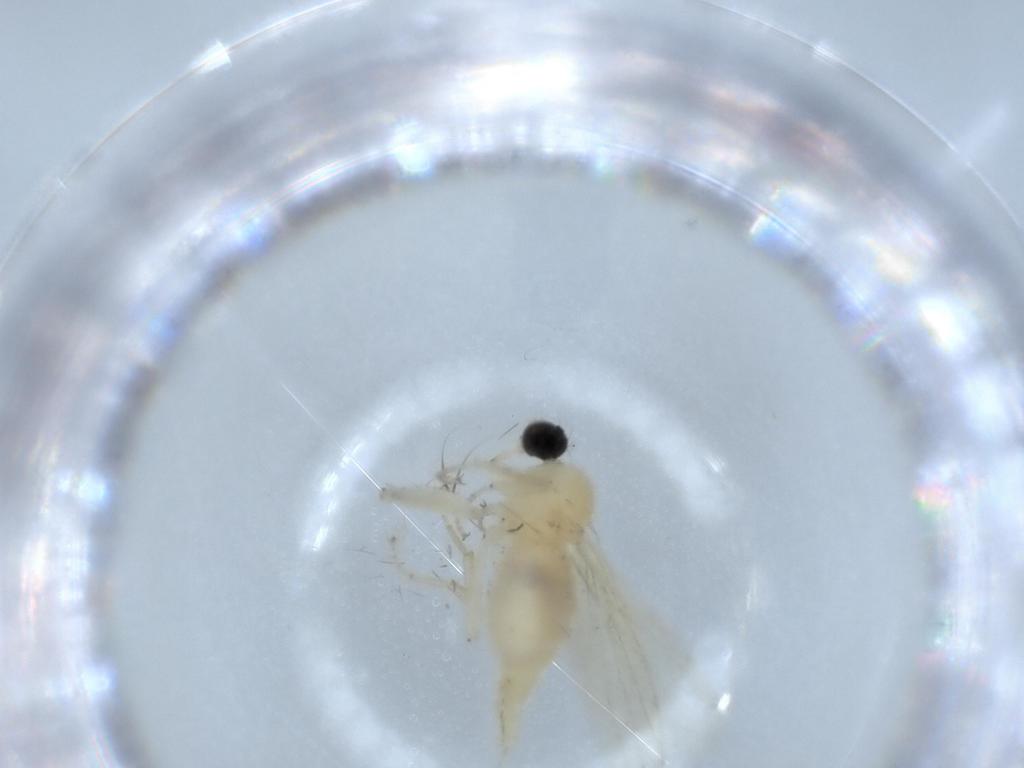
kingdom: Animalia
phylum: Arthropoda
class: Insecta
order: Diptera
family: Hybotidae
